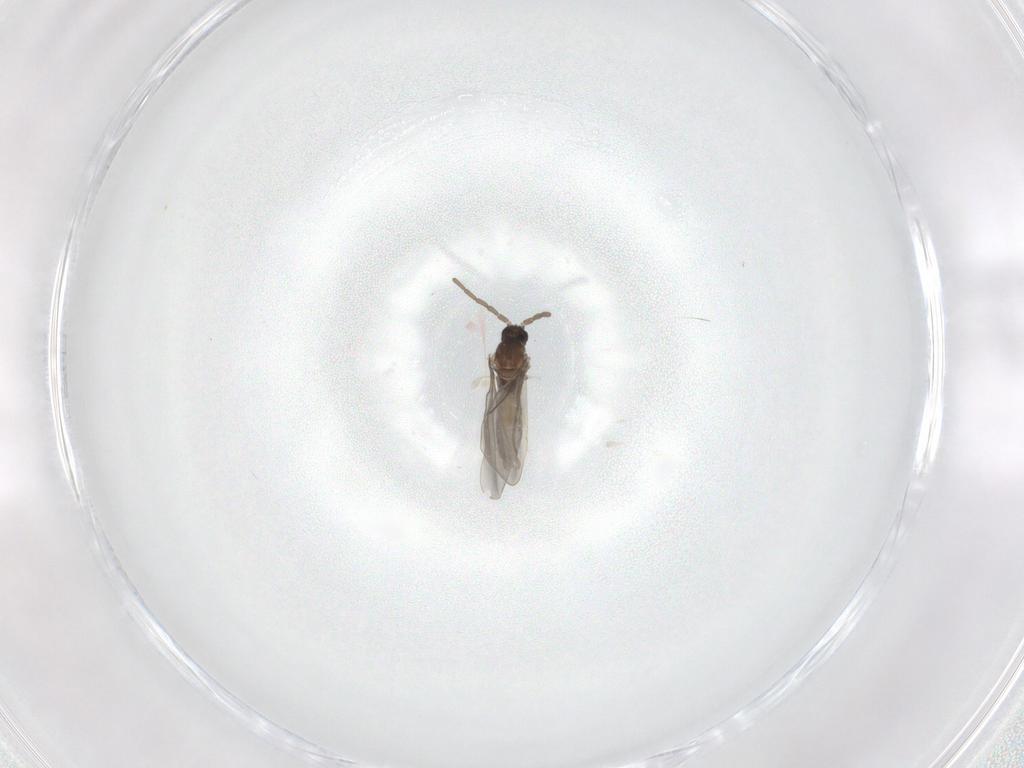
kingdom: Animalia
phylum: Arthropoda
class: Insecta
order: Diptera
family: Cecidomyiidae
